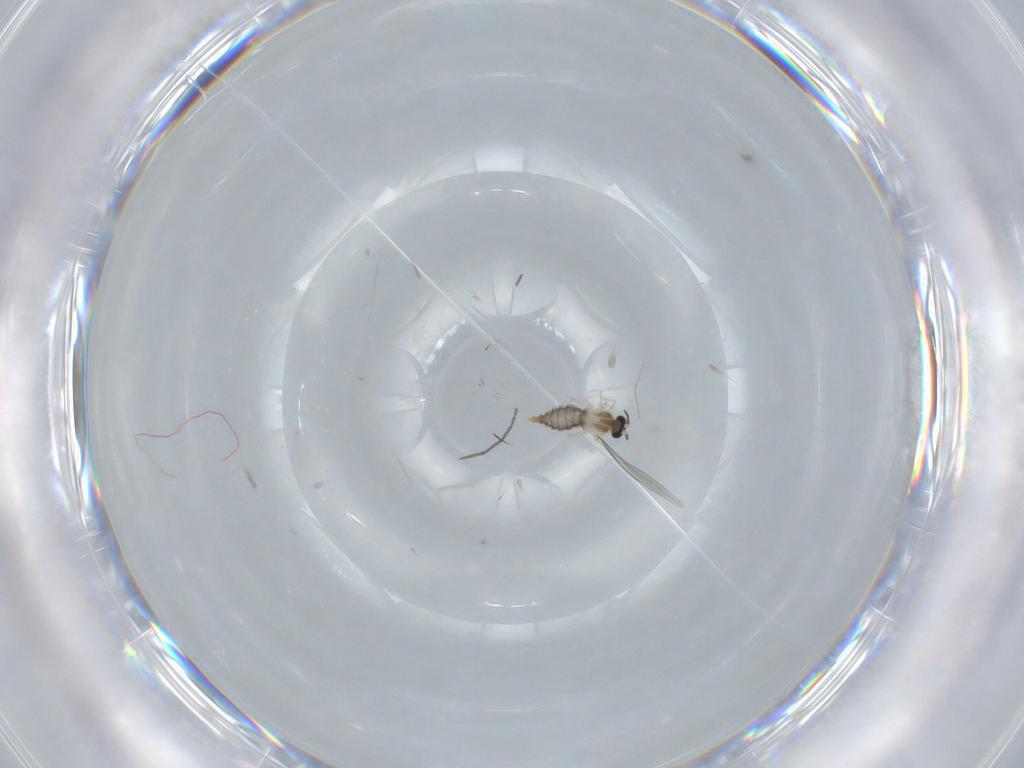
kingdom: Animalia
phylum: Arthropoda
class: Insecta
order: Diptera
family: Cecidomyiidae
